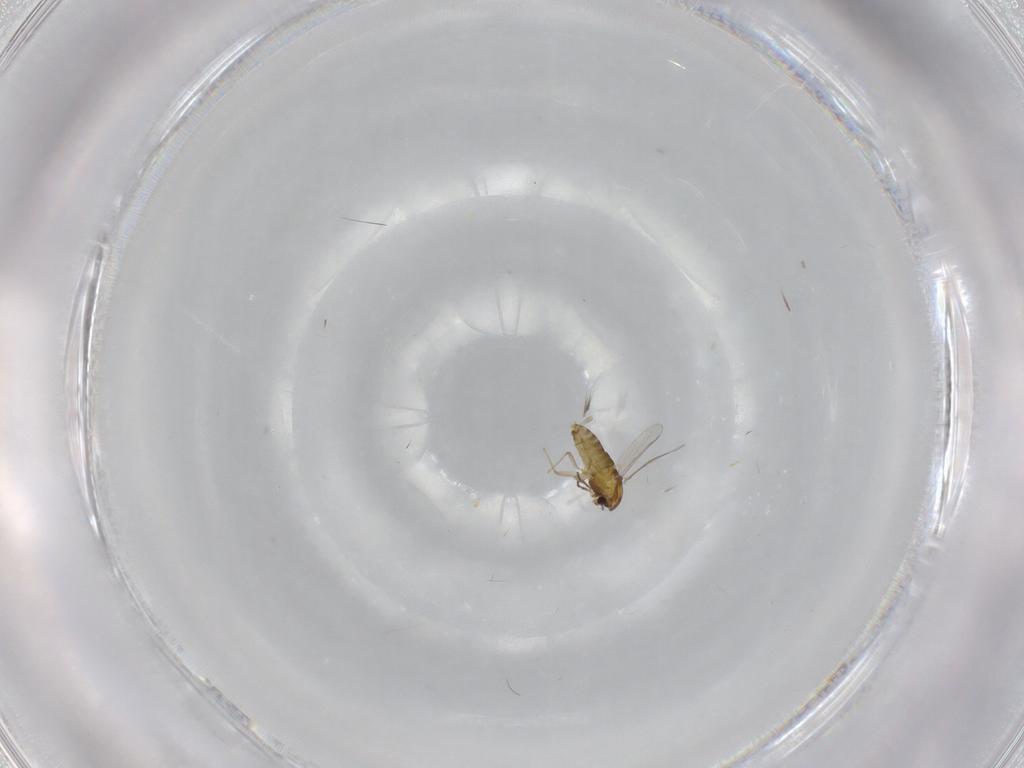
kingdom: Animalia
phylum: Arthropoda
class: Insecta
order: Diptera
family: Chironomidae
